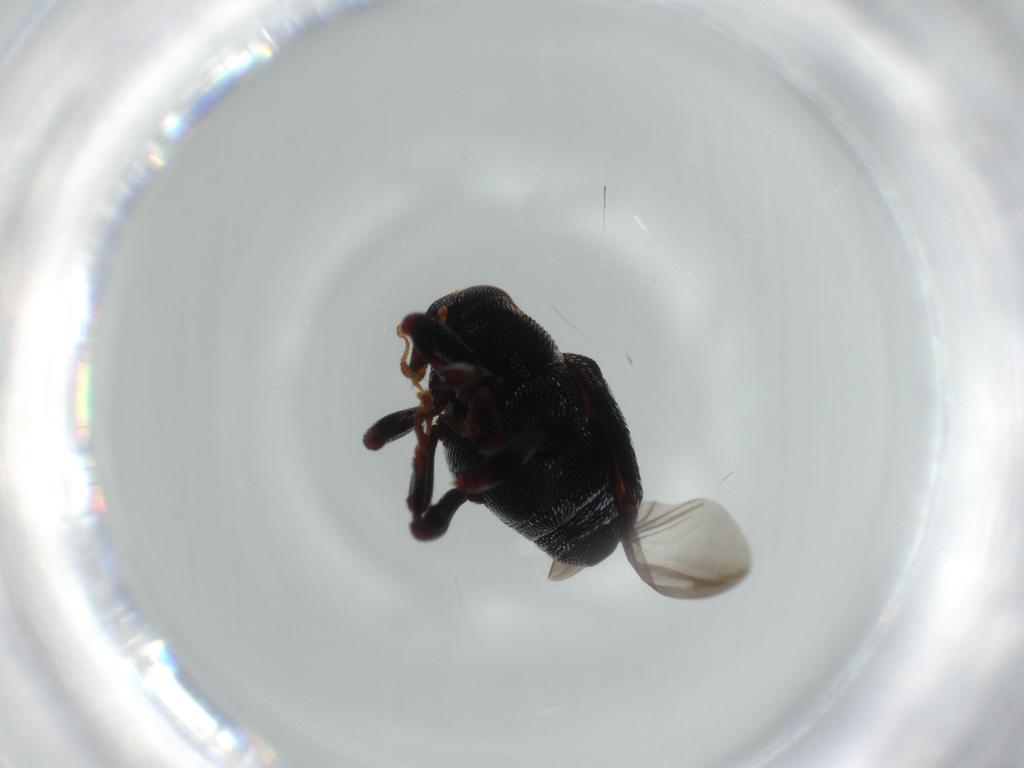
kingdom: Animalia
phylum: Arthropoda
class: Insecta
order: Coleoptera
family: Curculionidae
